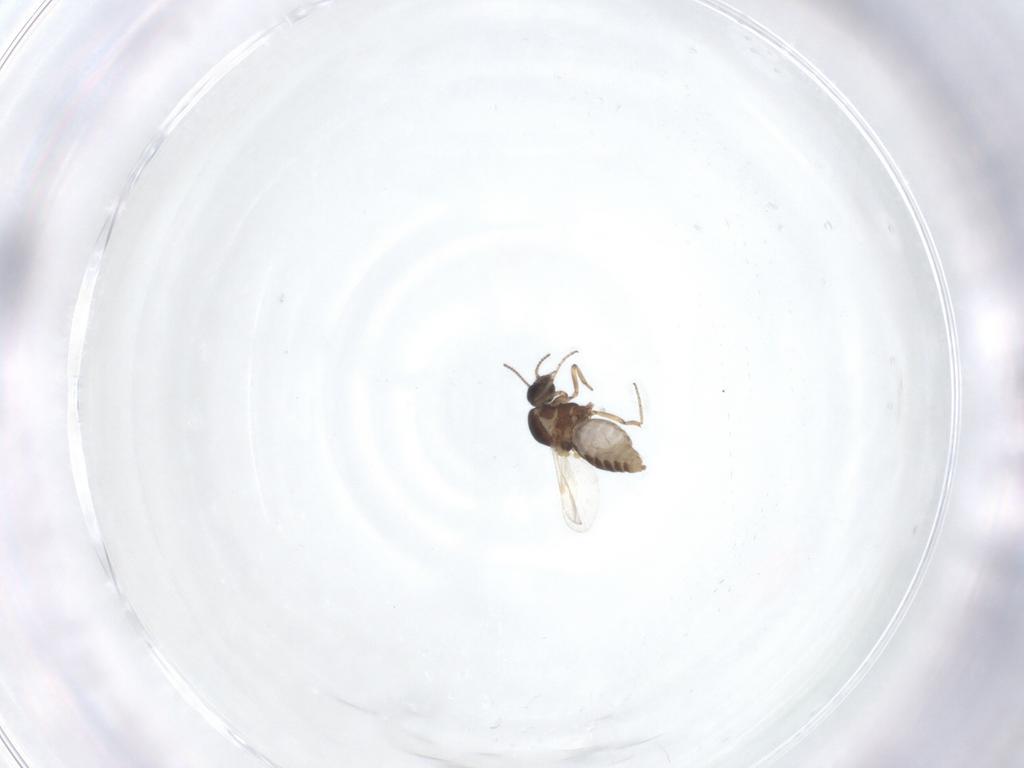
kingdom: Animalia
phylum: Arthropoda
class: Insecta
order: Diptera
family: Ceratopogonidae
